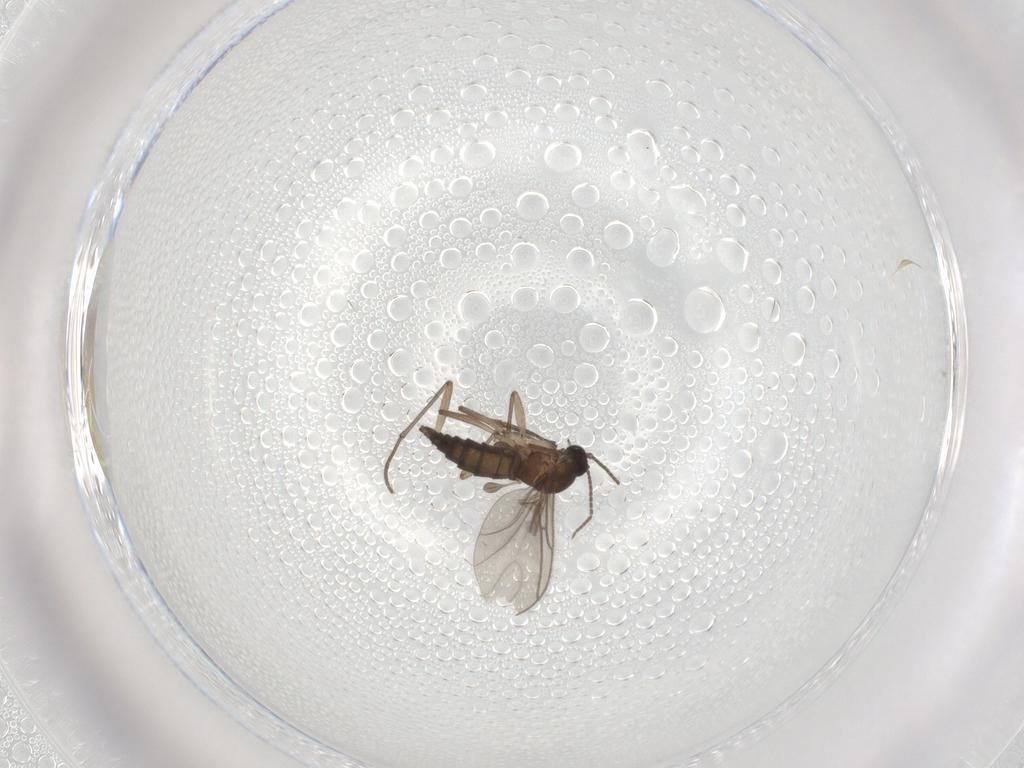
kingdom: Animalia
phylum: Arthropoda
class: Insecta
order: Diptera
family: Sciaridae
